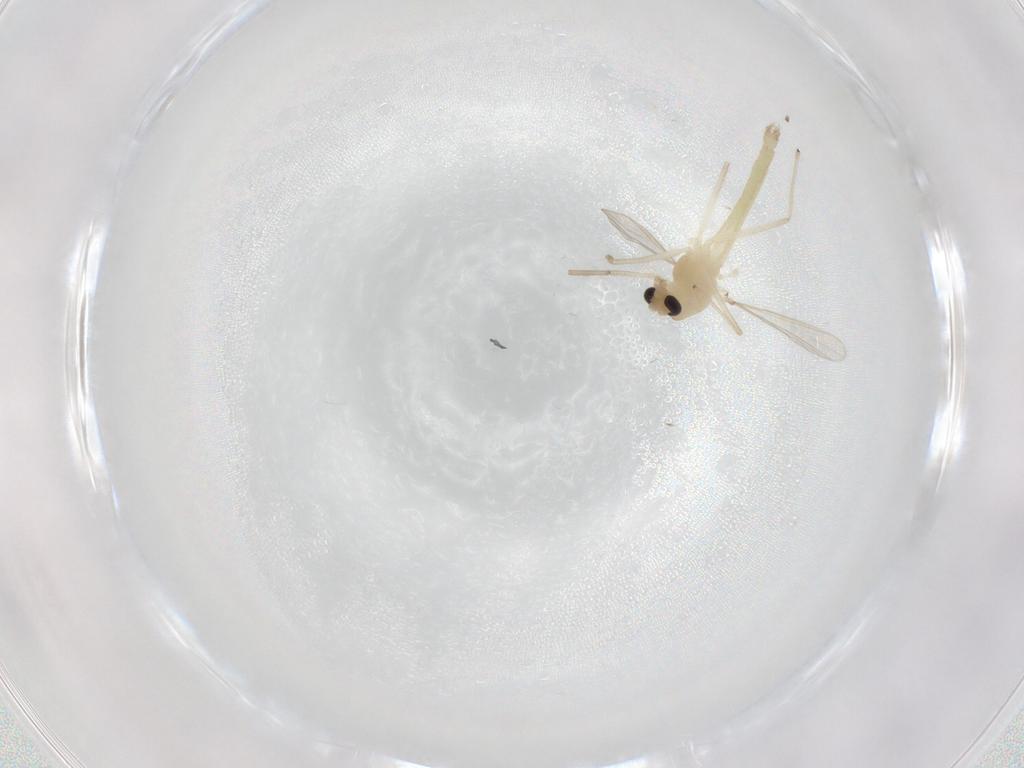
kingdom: Animalia
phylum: Arthropoda
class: Insecta
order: Diptera
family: Chironomidae
